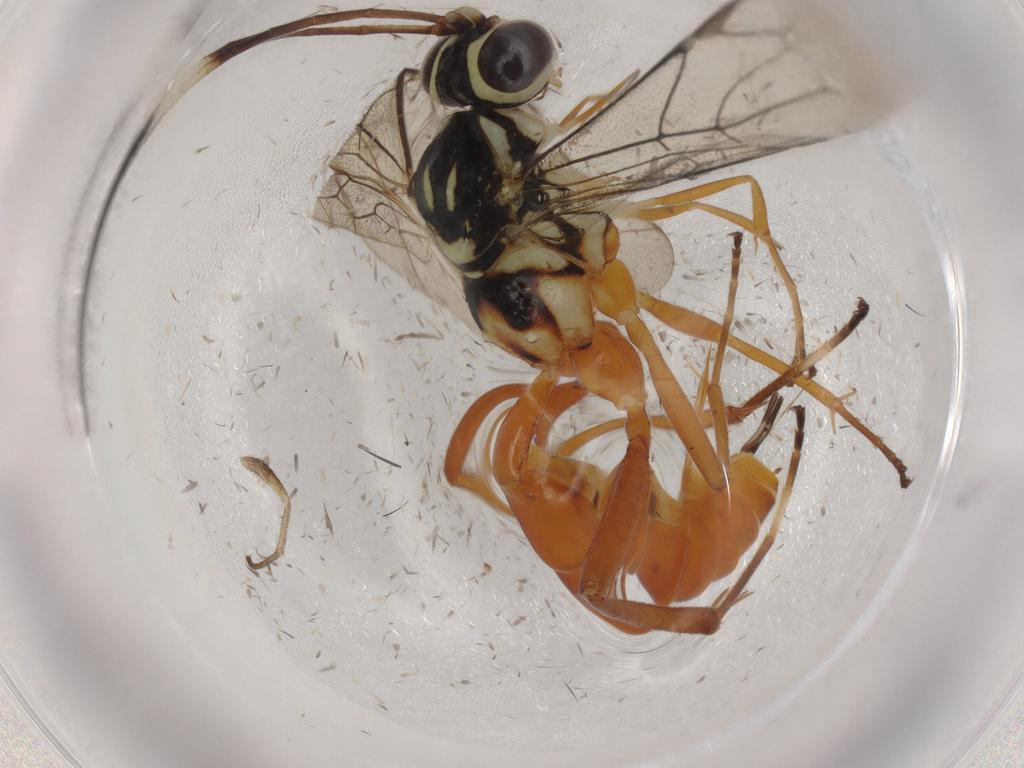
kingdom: Animalia
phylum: Arthropoda
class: Insecta
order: Hymenoptera
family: Ichneumonidae
